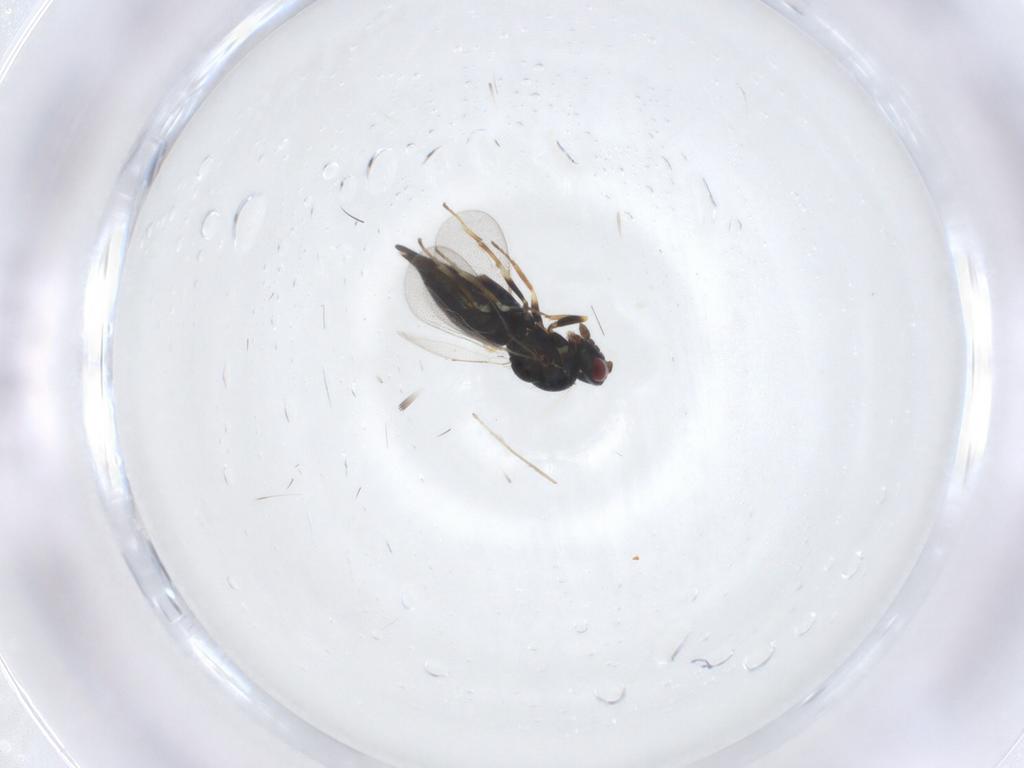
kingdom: Animalia
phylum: Arthropoda
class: Insecta
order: Hymenoptera
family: Eulophidae
